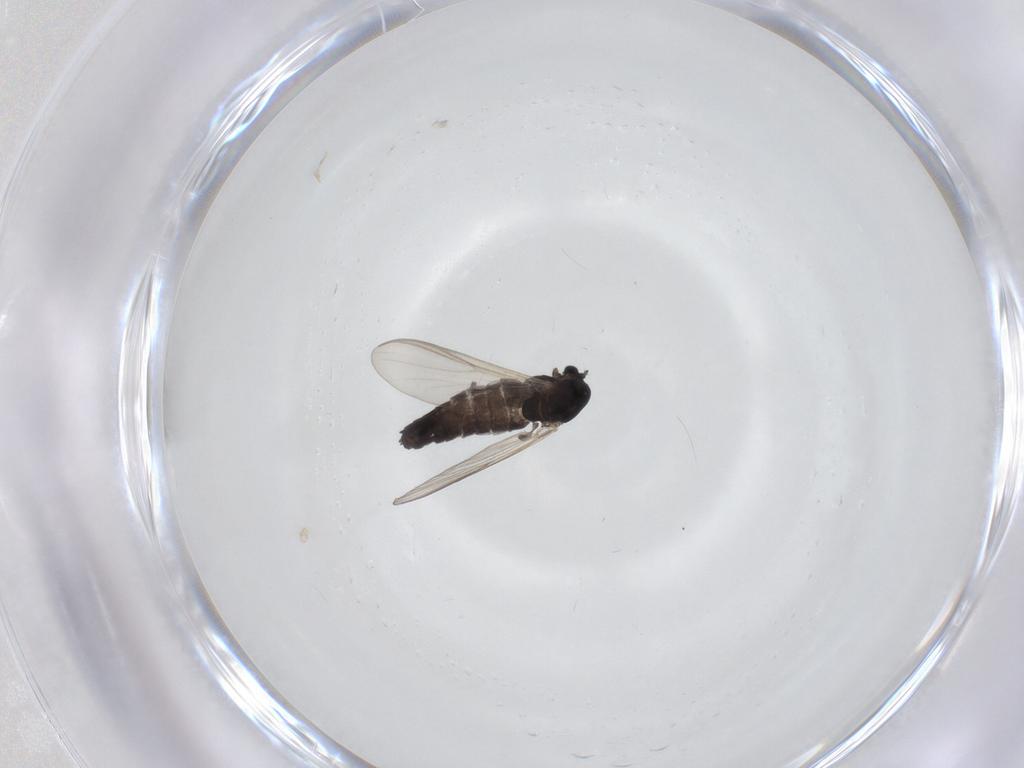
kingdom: Animalia
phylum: Arthropoda
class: Insecta
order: Diptera
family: Chironomidae
